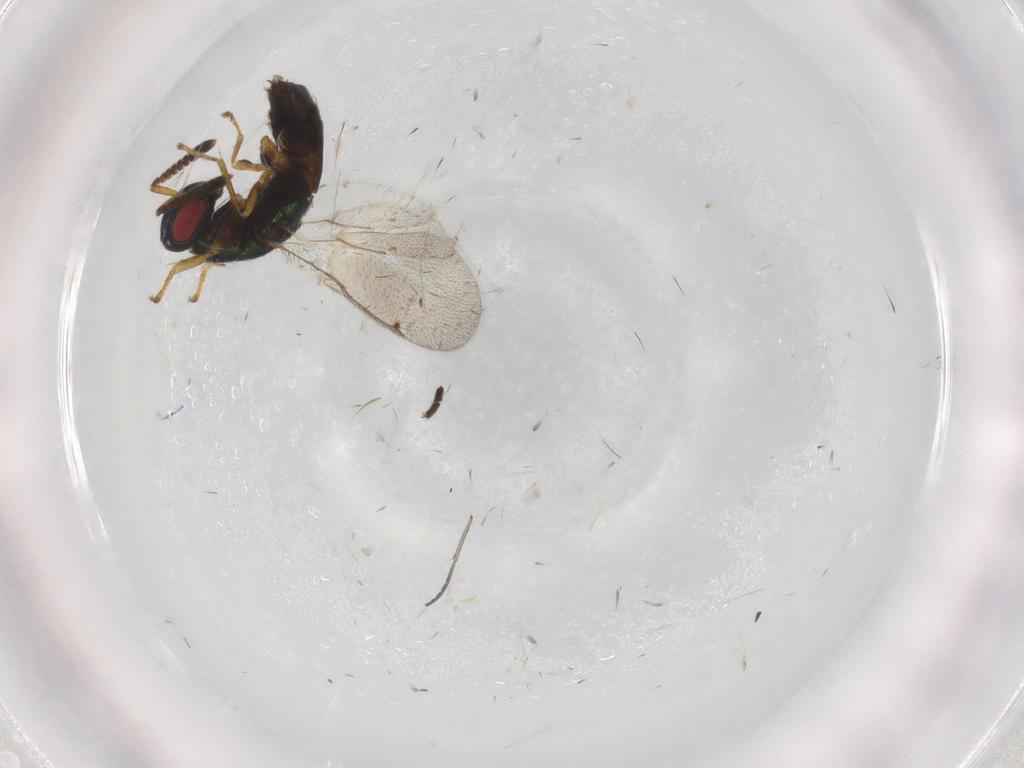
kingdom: Animalia
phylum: Arthropoda
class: Insecta
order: Hymenoptera
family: Torymidae
